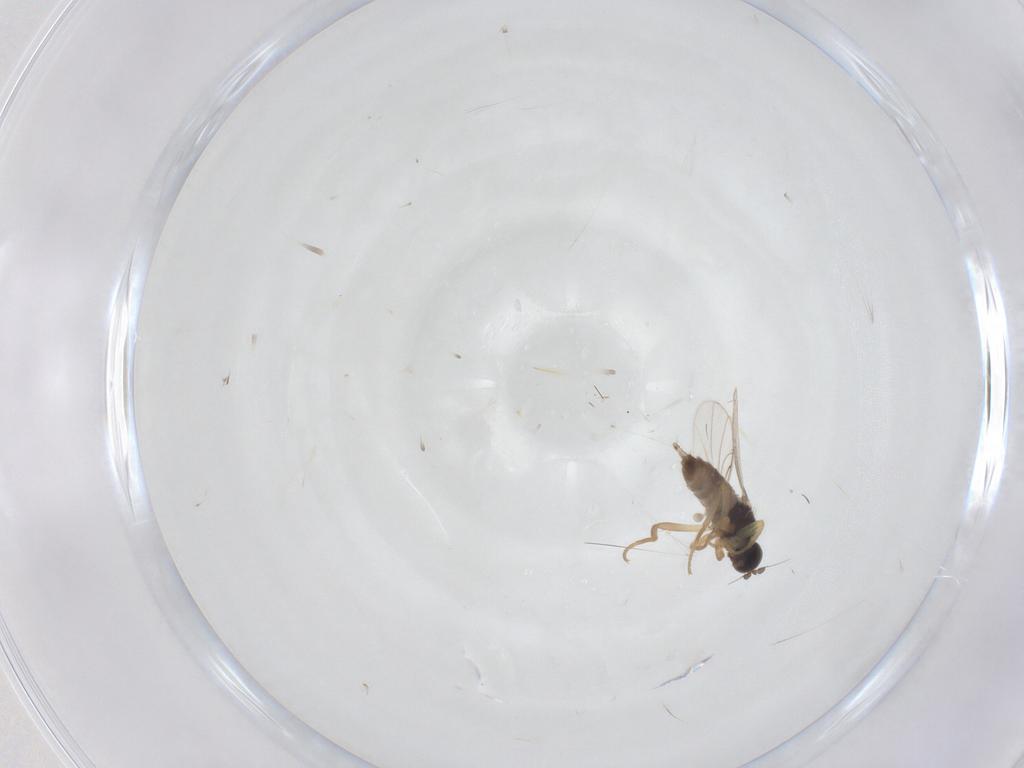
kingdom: Animalia
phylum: Arthropoda
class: Insecta
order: Diptera
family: Hybotidae
